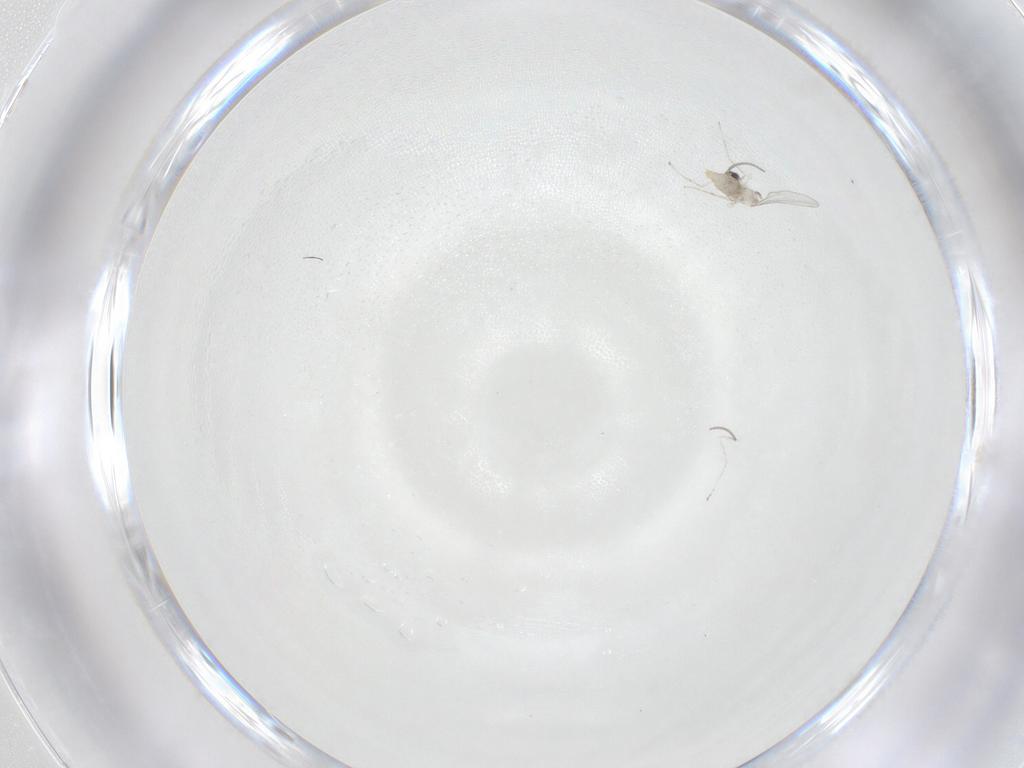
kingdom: Animalia
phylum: Arthropoda
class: Insecta
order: Diptera
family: Cecidomyiidae
